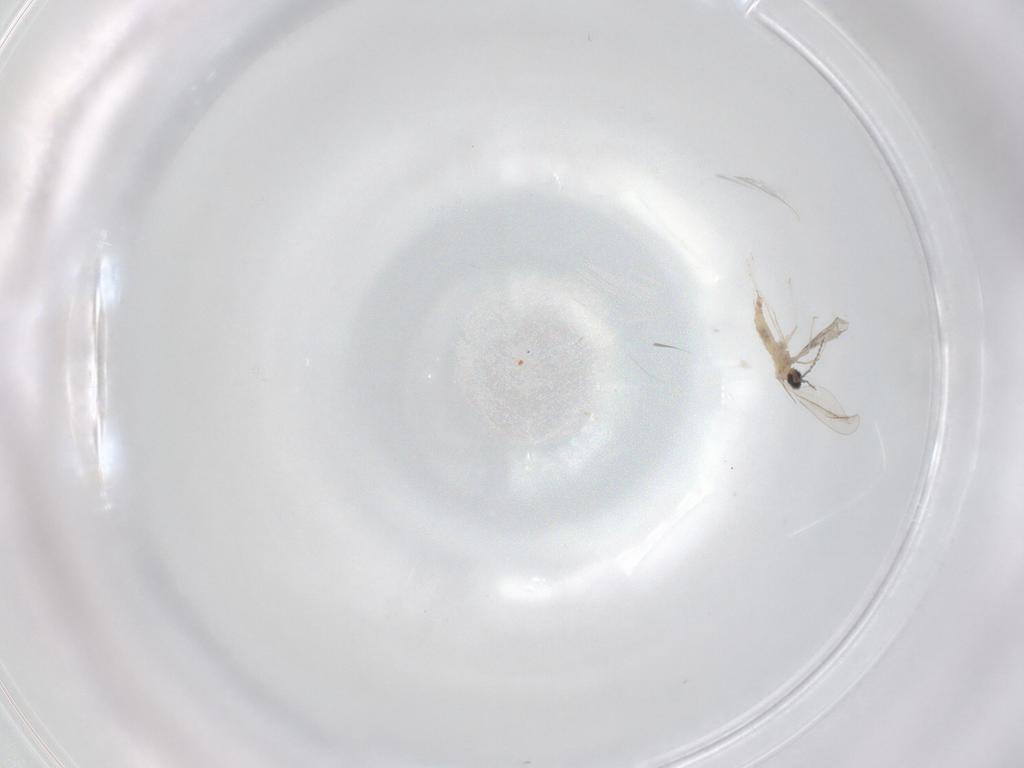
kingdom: Animalia
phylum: Arthropoda
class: Insecta
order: Diptera
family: Cecidomyiidae
